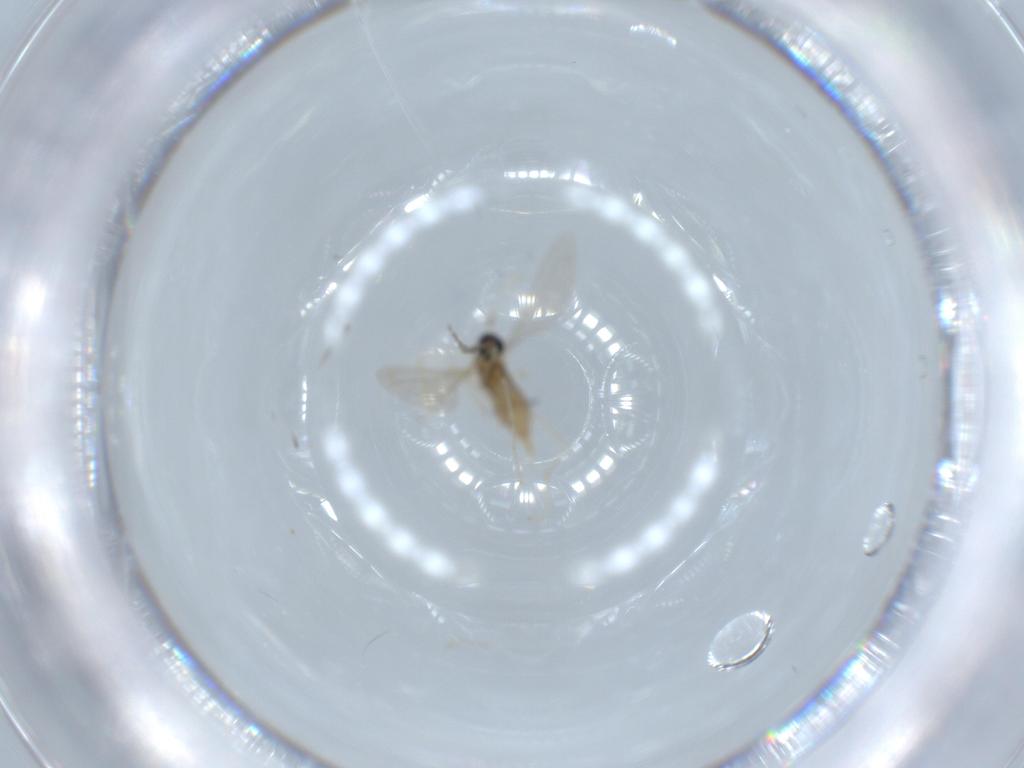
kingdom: Animalia
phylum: Arthropoda
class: Insecta
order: Diptera
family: Cecidomyiidae
